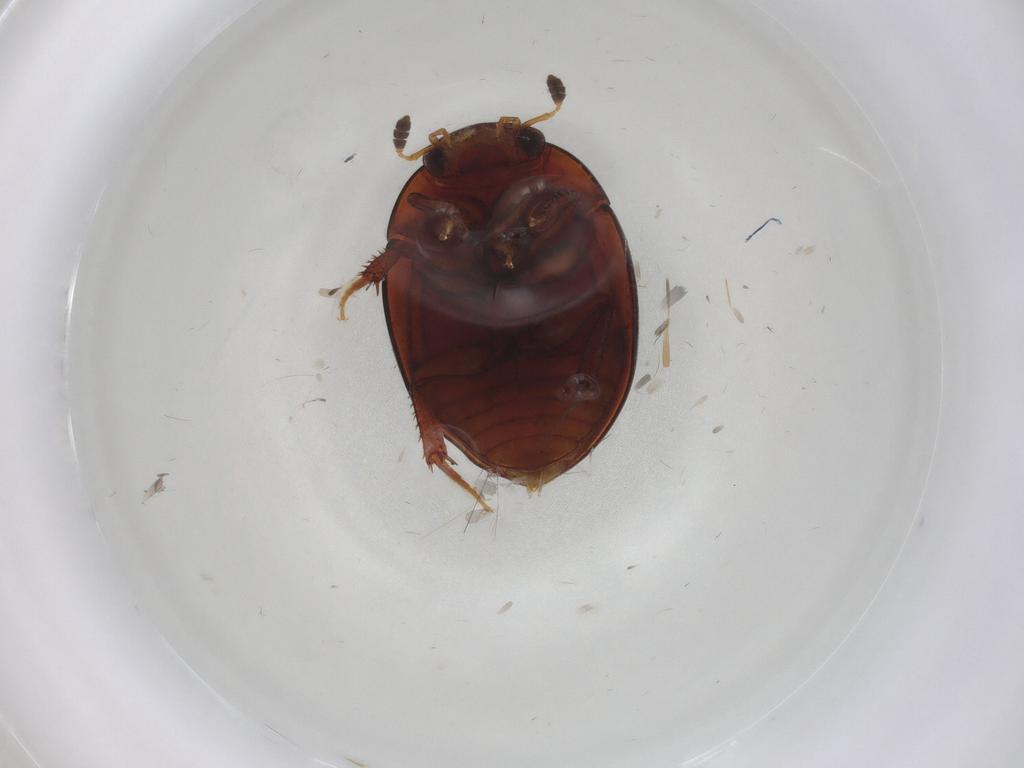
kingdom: Animalia
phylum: Arthropoda
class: Insecta
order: Coleoptera
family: Hydrophilidae
